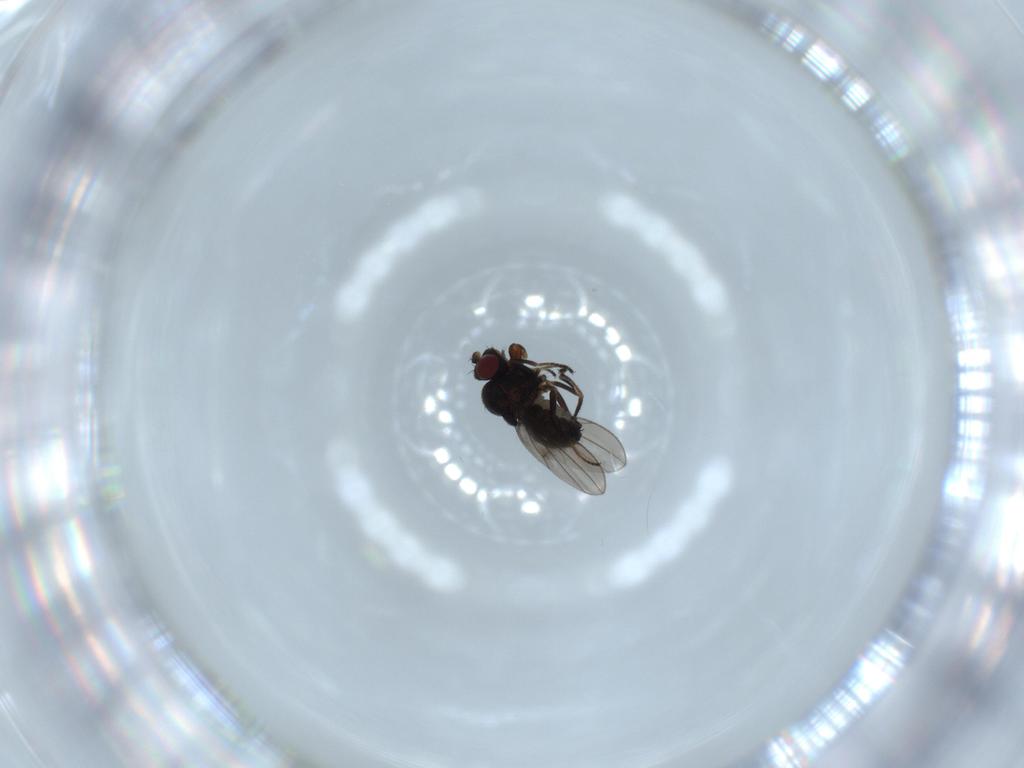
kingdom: Animalia
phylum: Arthropoda
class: Insecta
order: Diptera
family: Ephydridae
